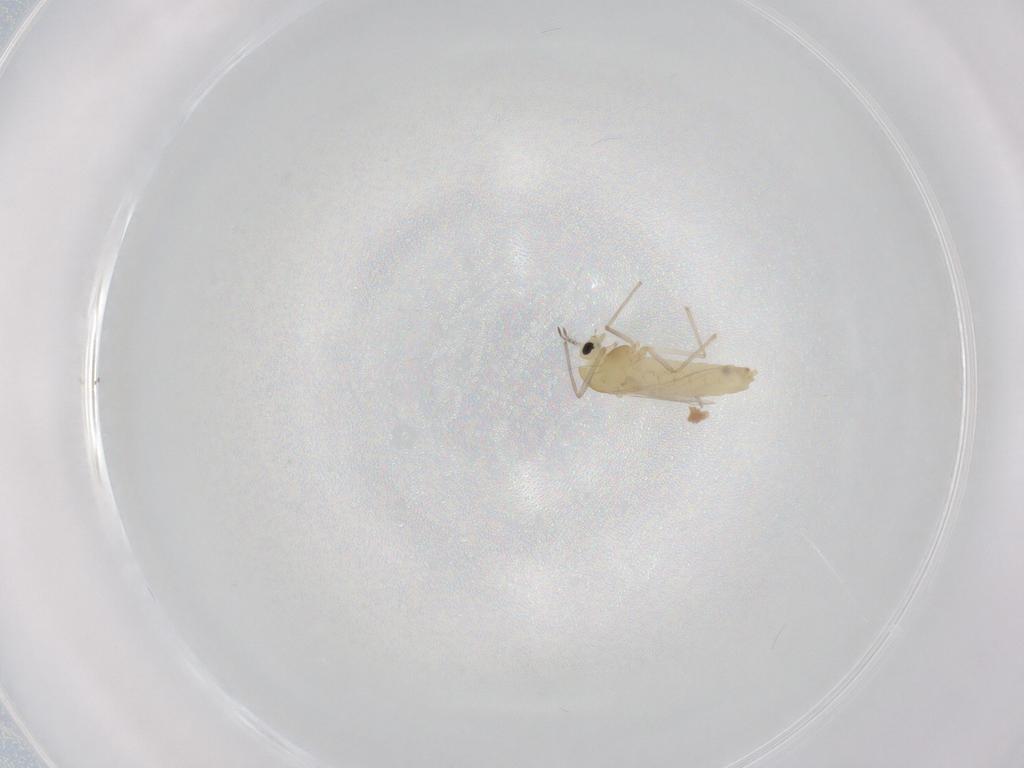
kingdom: Animalia
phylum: Arthropoda
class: Insecta
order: Diptera
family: Chironomidae
